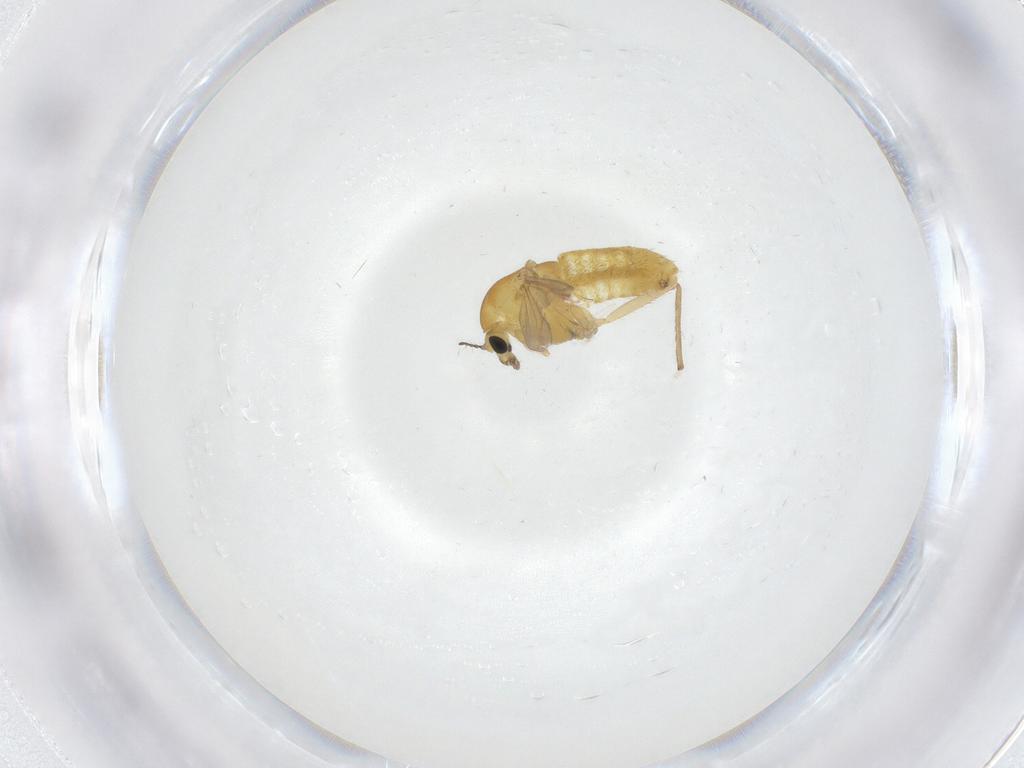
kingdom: Animalia
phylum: Arthropoda
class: Insecta
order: Diptera
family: Chironomidae
